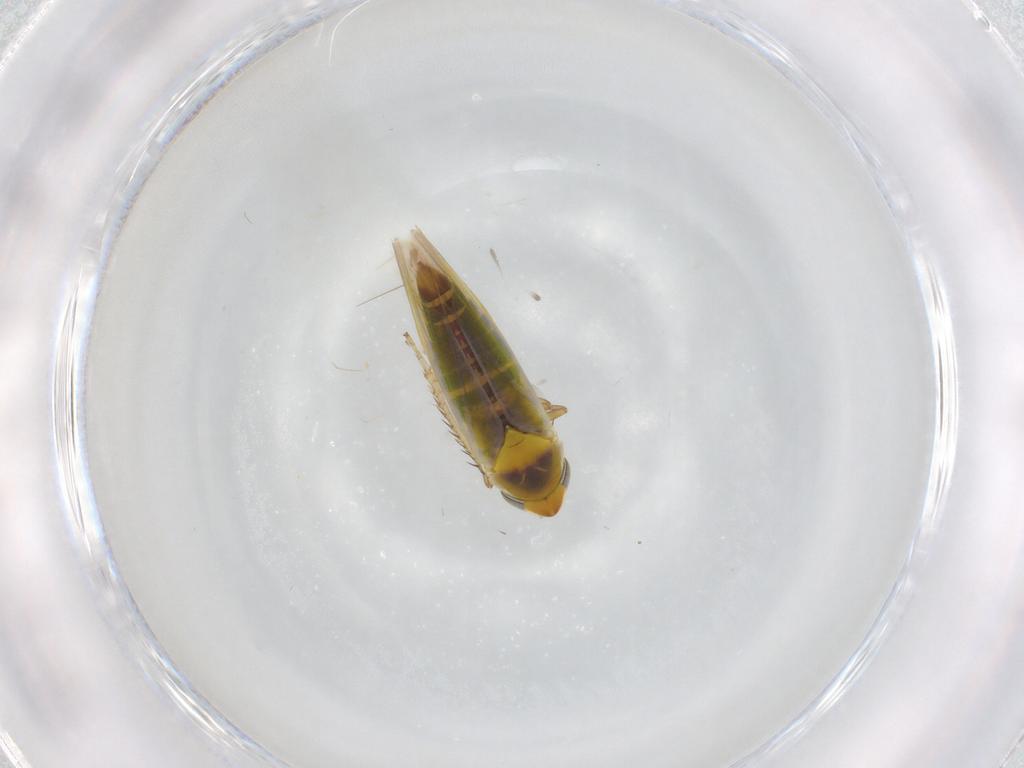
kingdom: Animalia
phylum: Arthropoda
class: Insecta
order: Hemiptera
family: Cicadellidae
